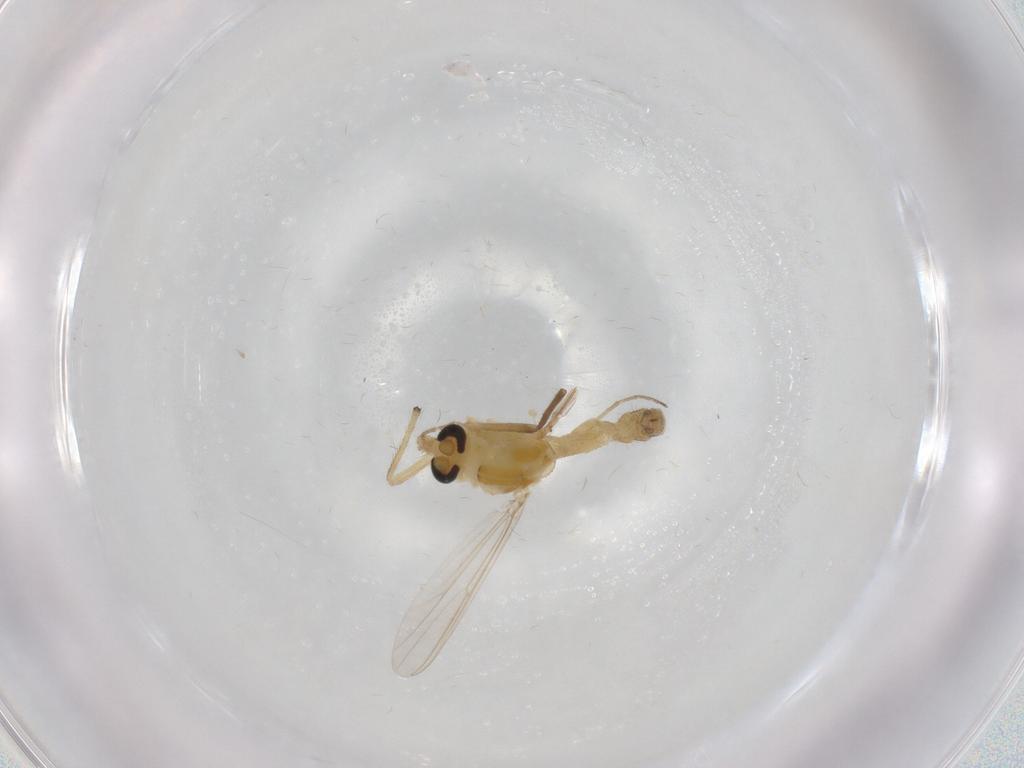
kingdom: Animalia
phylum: Arthropoda
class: Insecta
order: Diptera
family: Chironomidae
